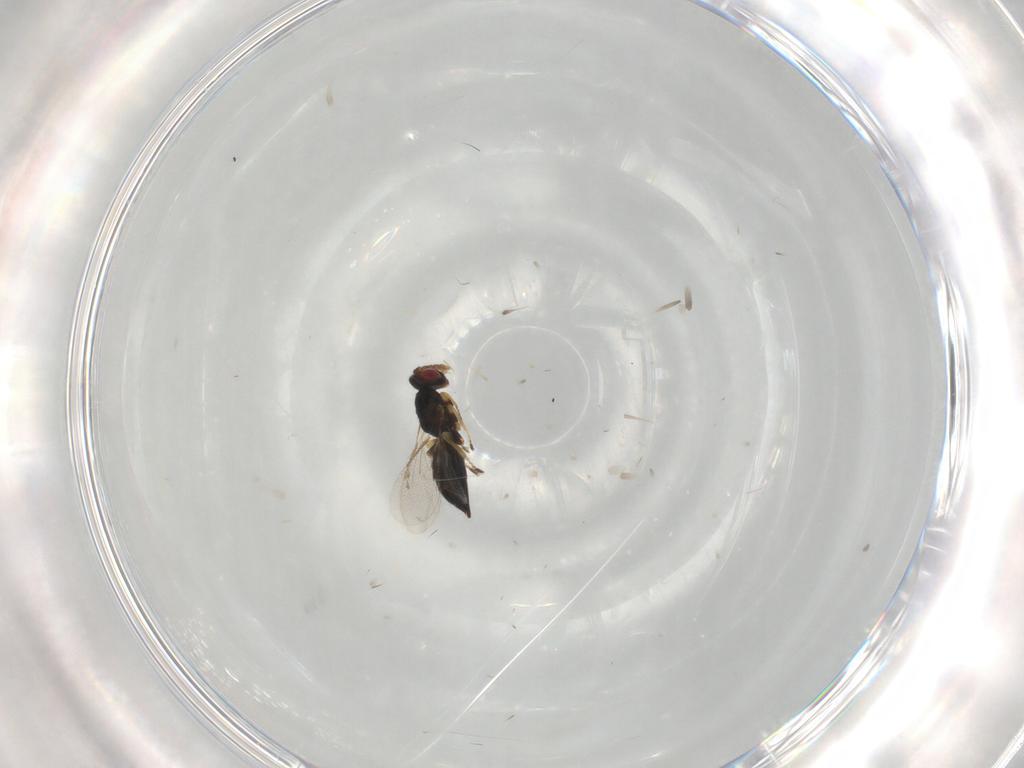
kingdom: Animalia
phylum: Arthropoda
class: Insecta
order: Hymenoptera
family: Eulophidae
